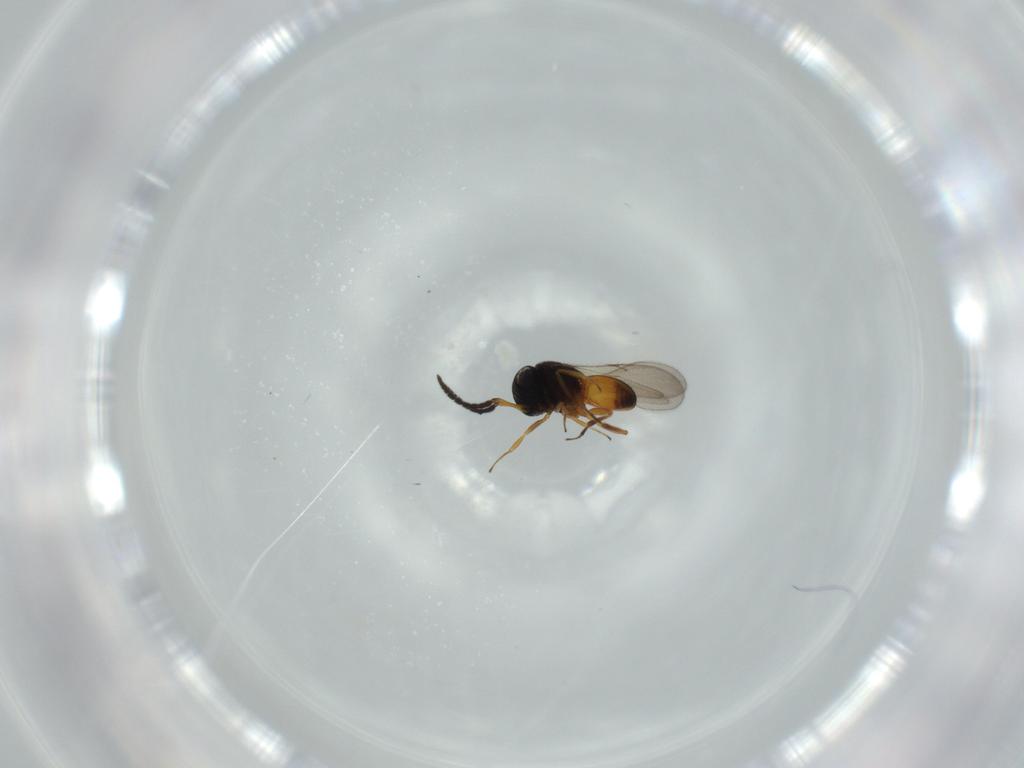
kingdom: Animalia
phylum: Arthropoda
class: Insecta
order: Hymenoptera
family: Scelionidae
